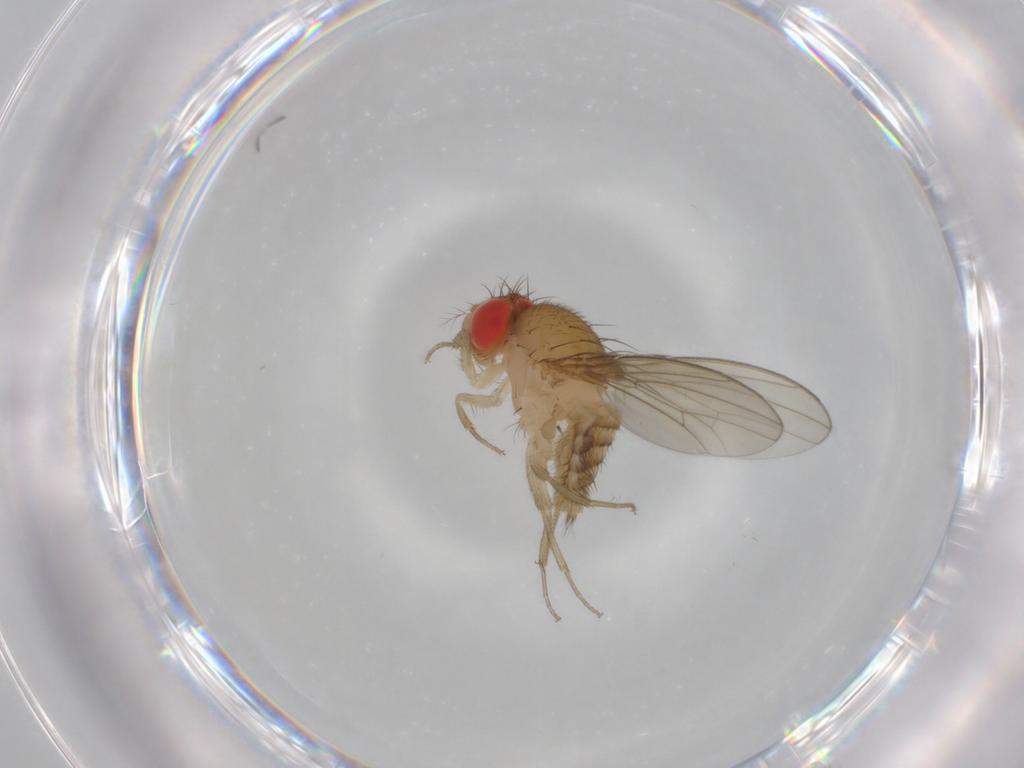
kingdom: Animalia
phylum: Arthropoda
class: Insecta
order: Diptera
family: Drosophilidae
